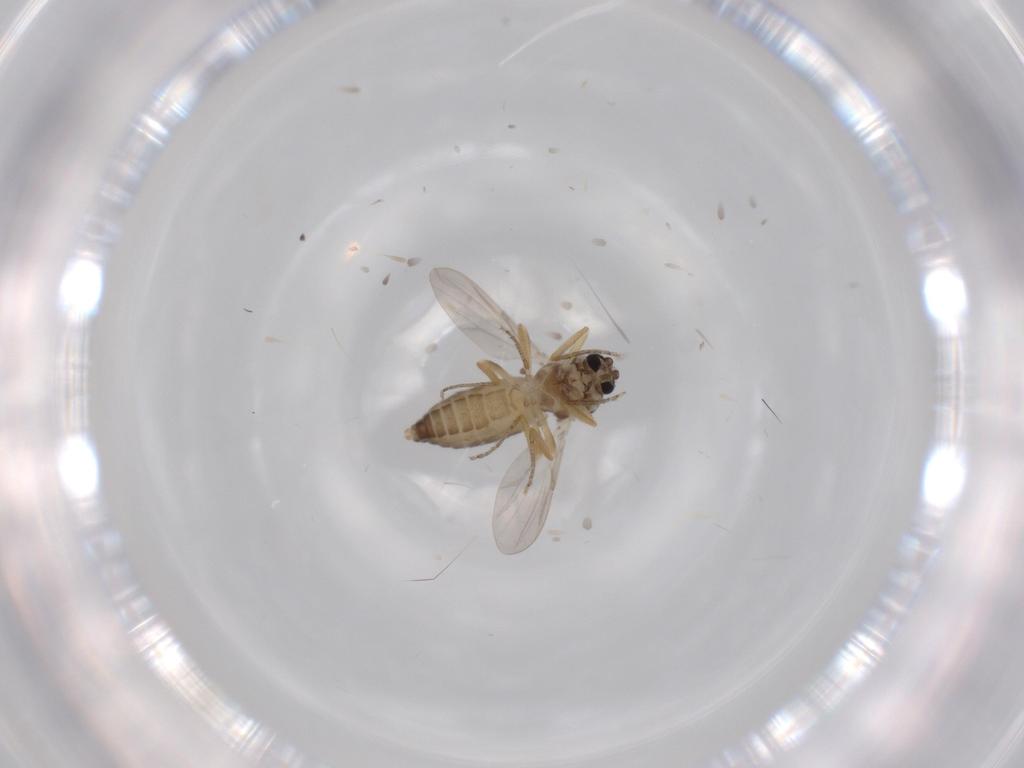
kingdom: Animalia
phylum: Arthropoda
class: Insecta
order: Diptera
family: Ceratopogonidae
